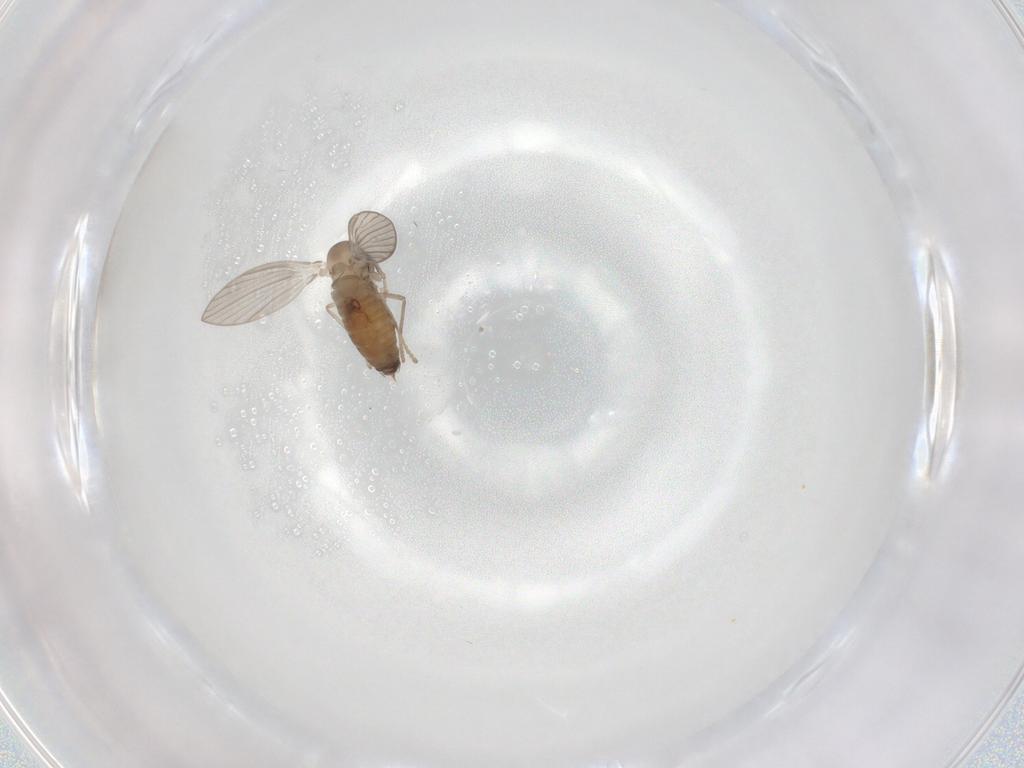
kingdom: Animalia
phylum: Arthropoda
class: Insecta
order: Diptera
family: Psychodidae
